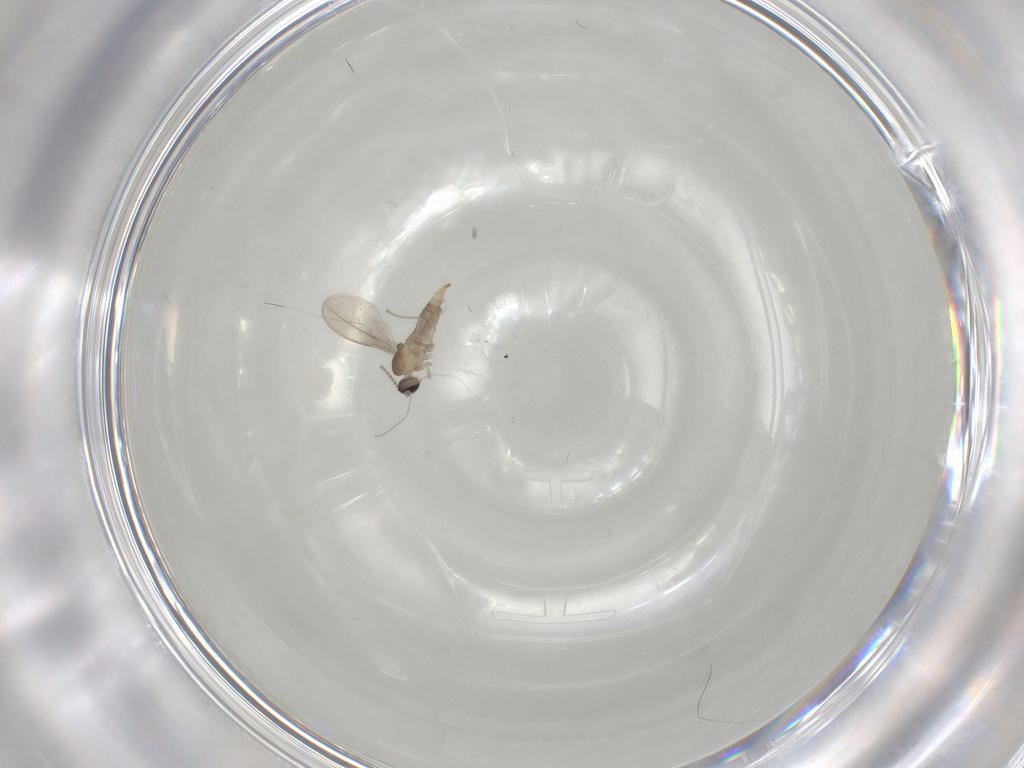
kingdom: Animalia
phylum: Arthropoda
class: Insecta
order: Diptera
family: Cecidomyiidae
